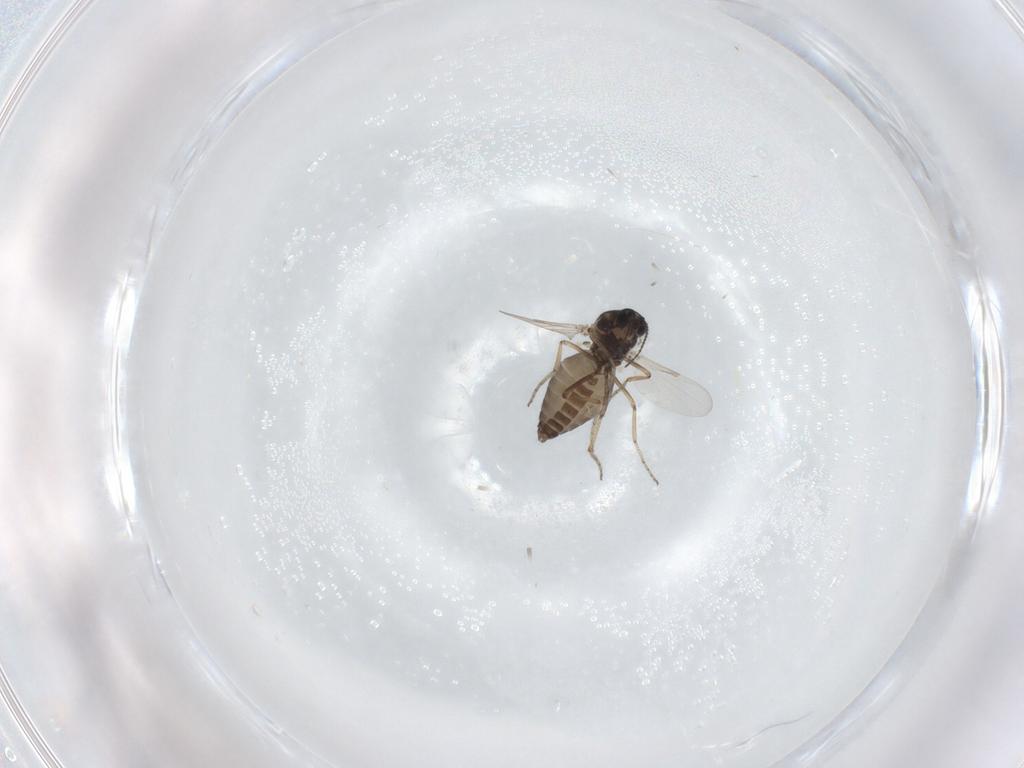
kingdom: Animalia
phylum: Arthropoda
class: Insecta
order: Diptera
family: Ceratopogonidae
